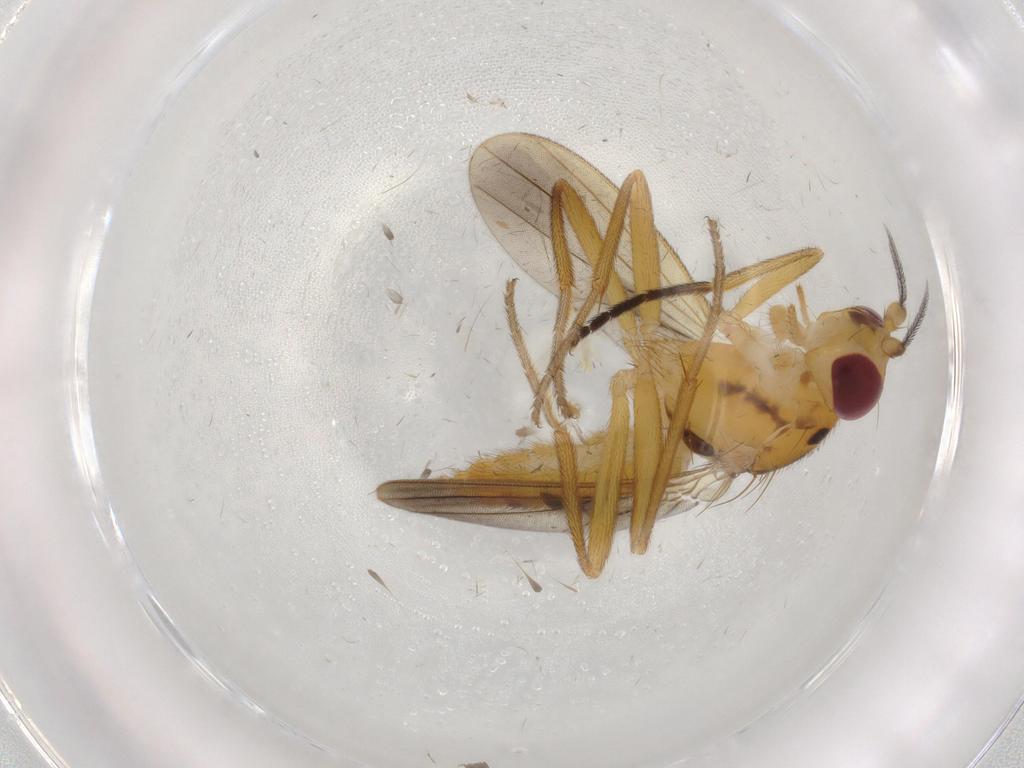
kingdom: Animalia
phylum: Arthropoda
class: Insecta
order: Diptera
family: Clusiidae
